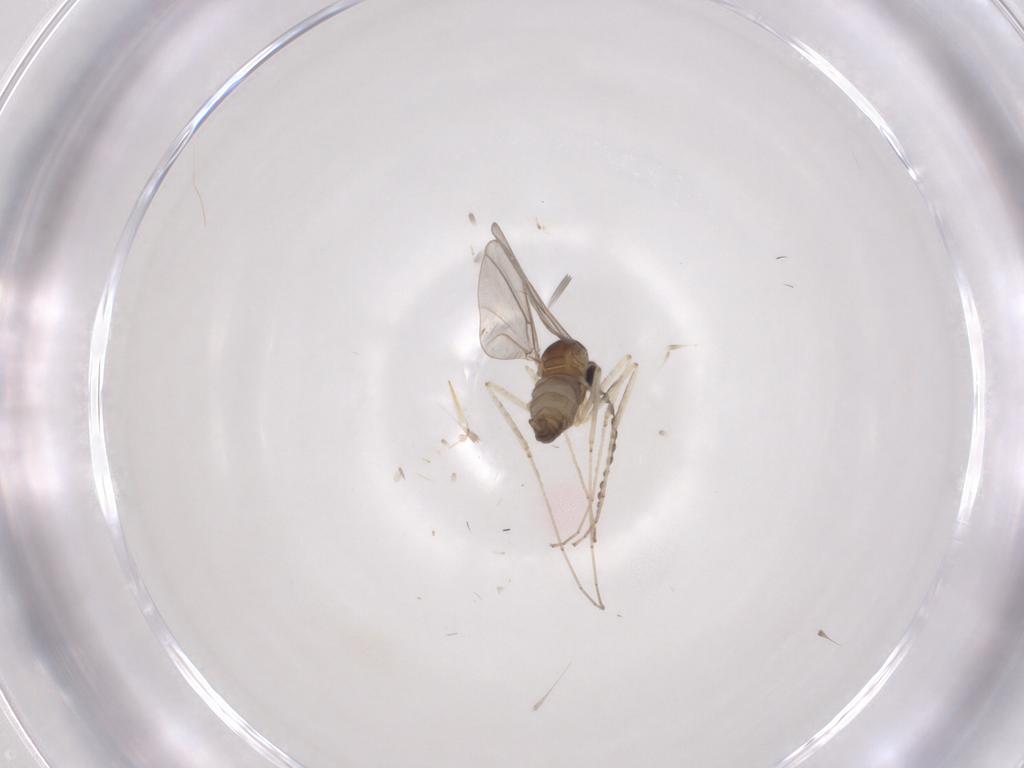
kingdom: Animalia
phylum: Arthropoda
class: Insecta
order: Diptera
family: Cecidomyiidae
